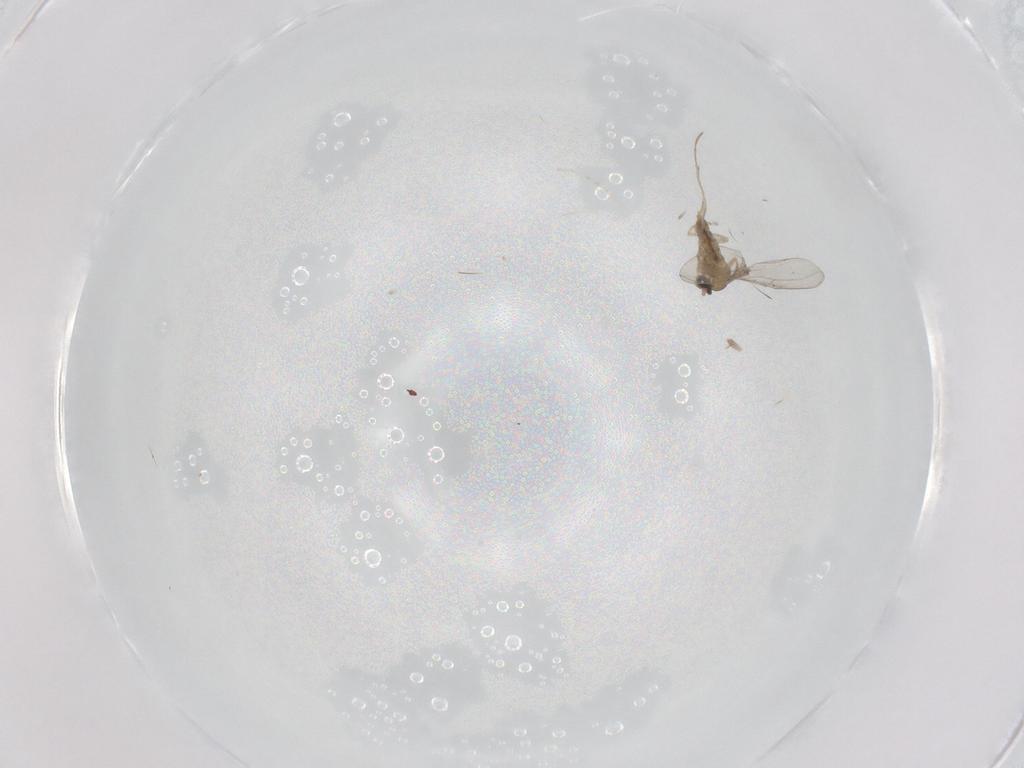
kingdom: Animalia
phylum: Arthropoda
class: Insecta
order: Diptera
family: Cecidomyiidae
